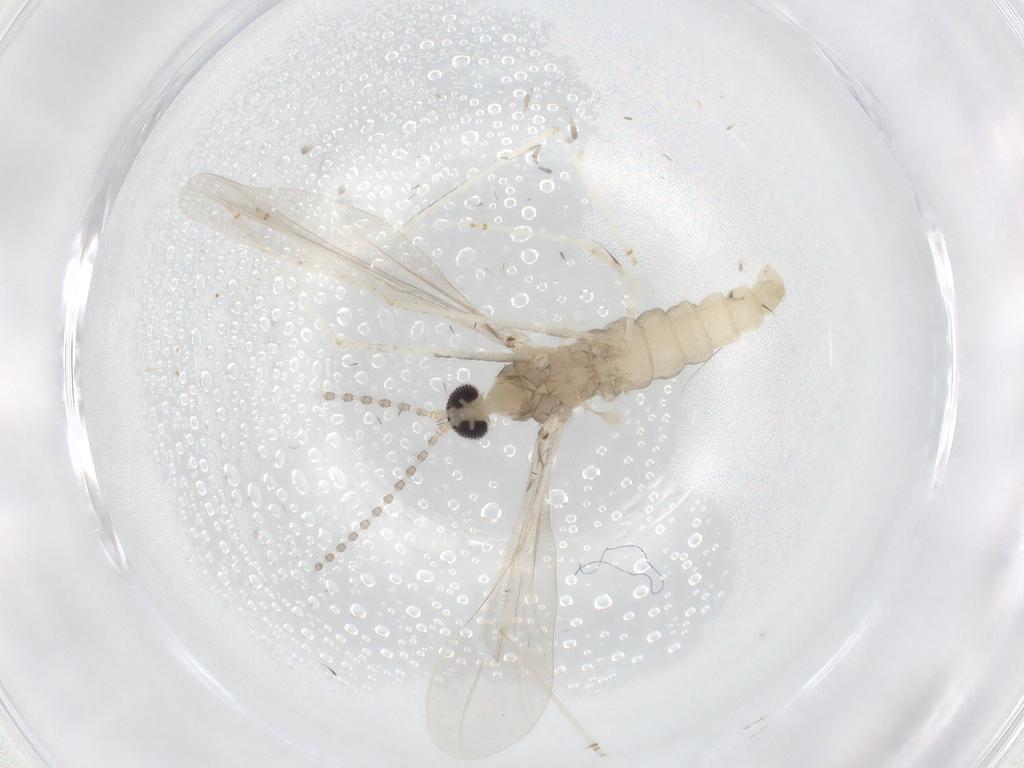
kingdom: Animalia
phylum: Arthropoda
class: Insecta
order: Diptera
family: Cecidomyiidae
